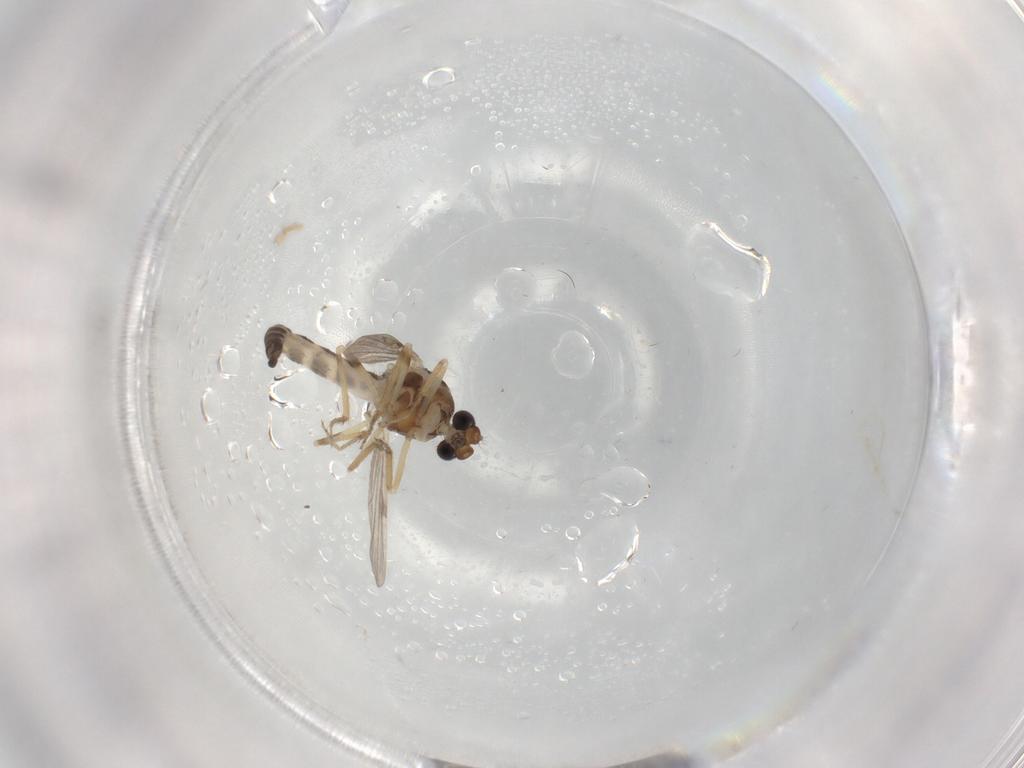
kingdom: Animalia
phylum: Arthropoda
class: Insecta
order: Diptera
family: Ceratopogonidae
